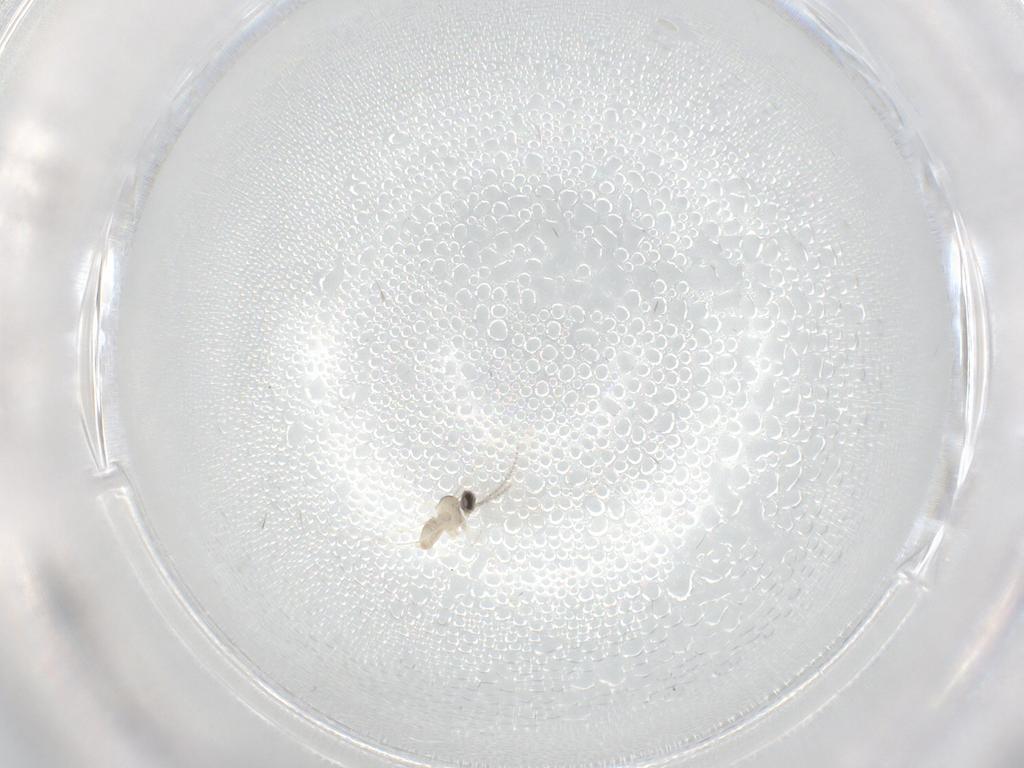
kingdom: Animalia
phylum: Arthropoda
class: Insecta
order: Diptera
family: Cecidomyiidae
